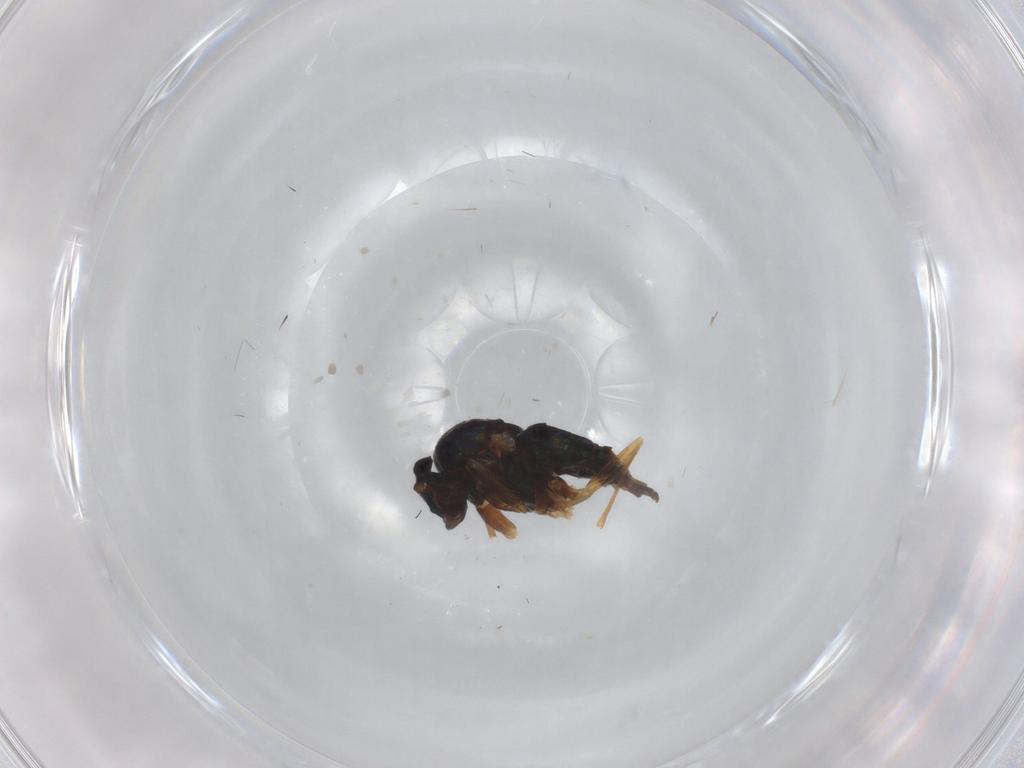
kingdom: Animalia
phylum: Arthropoda
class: Insecta
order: Diptera
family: Dolichopodidae
